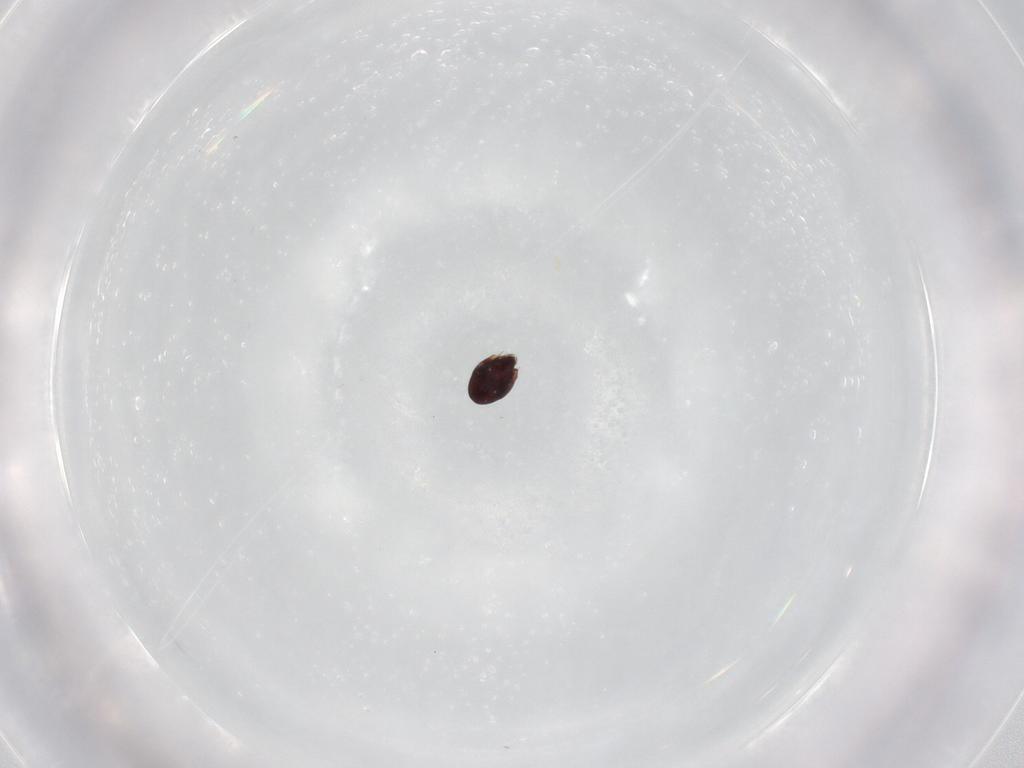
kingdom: Animalia
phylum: Arthropoda
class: Arachnida
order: Sarcoptiformes
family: Achipteriidae
